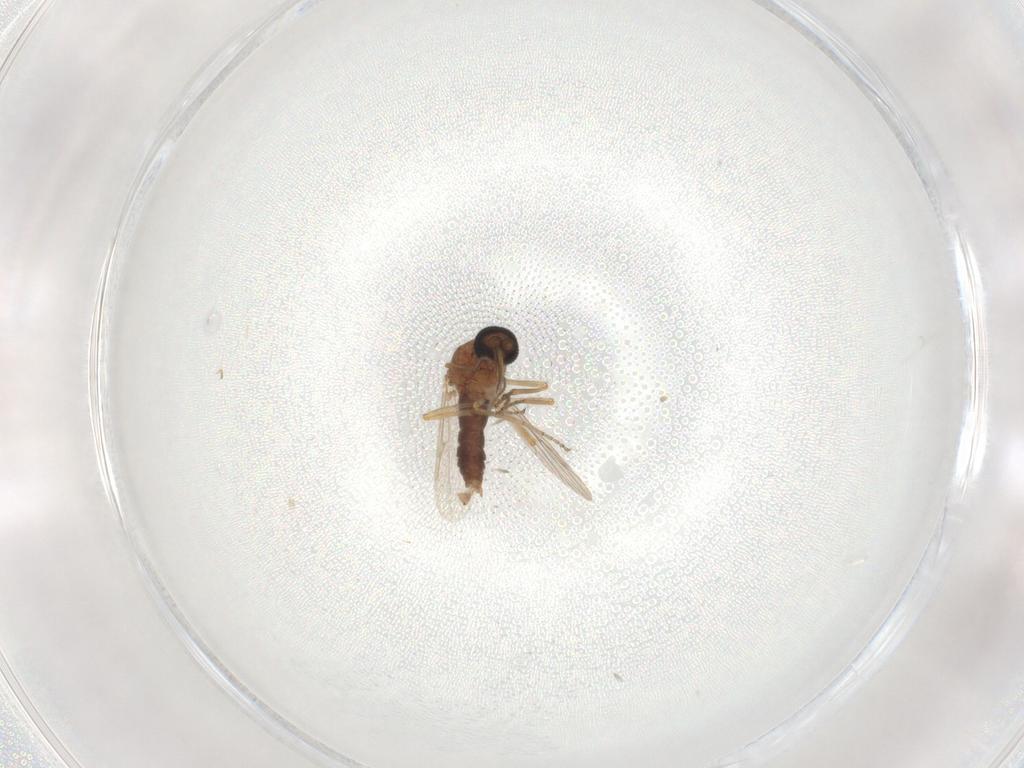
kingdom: Animalia
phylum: Arthropoda
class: Insecta
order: Diptera
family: Ceratopogonidae
